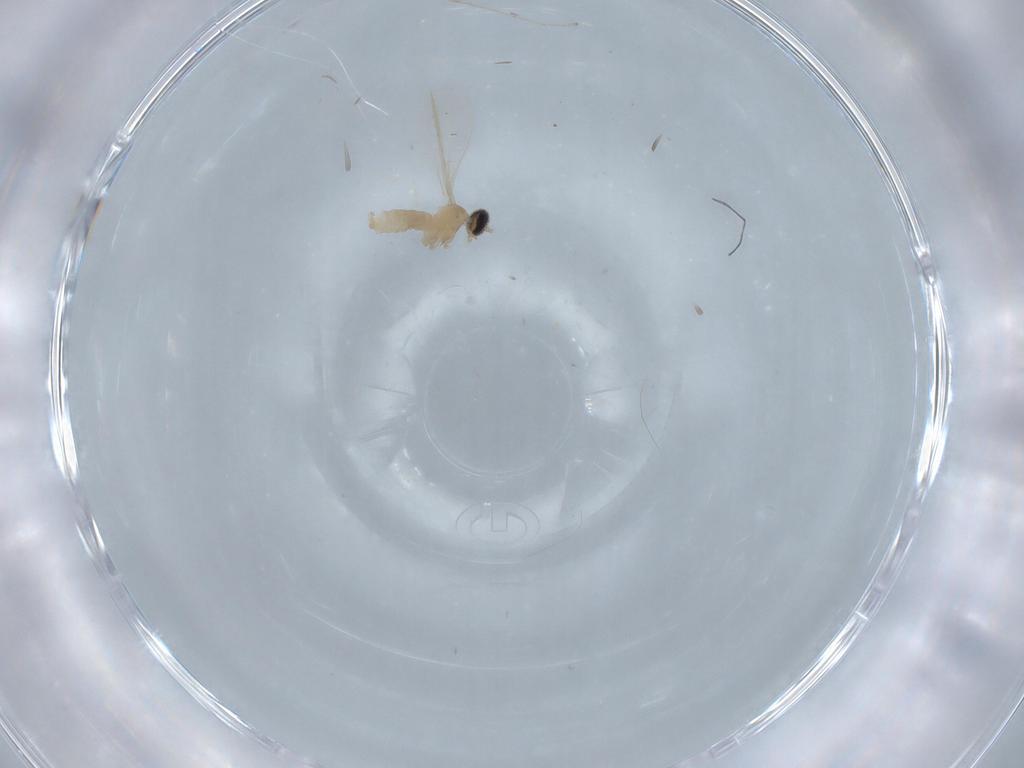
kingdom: Animalia
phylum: Arthropoda
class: Insecta
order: Diptera
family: Cecidomyiidae
